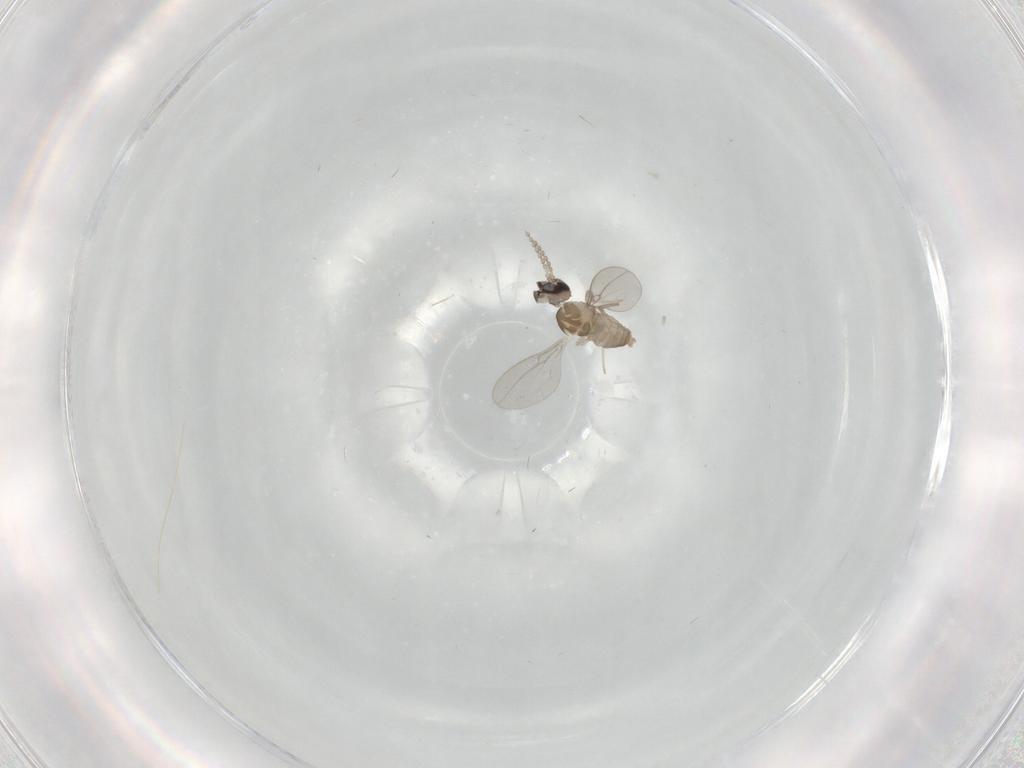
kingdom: Animalia
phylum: Arthropoda
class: Insecta
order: Diptera
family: Cecidomyiidae
